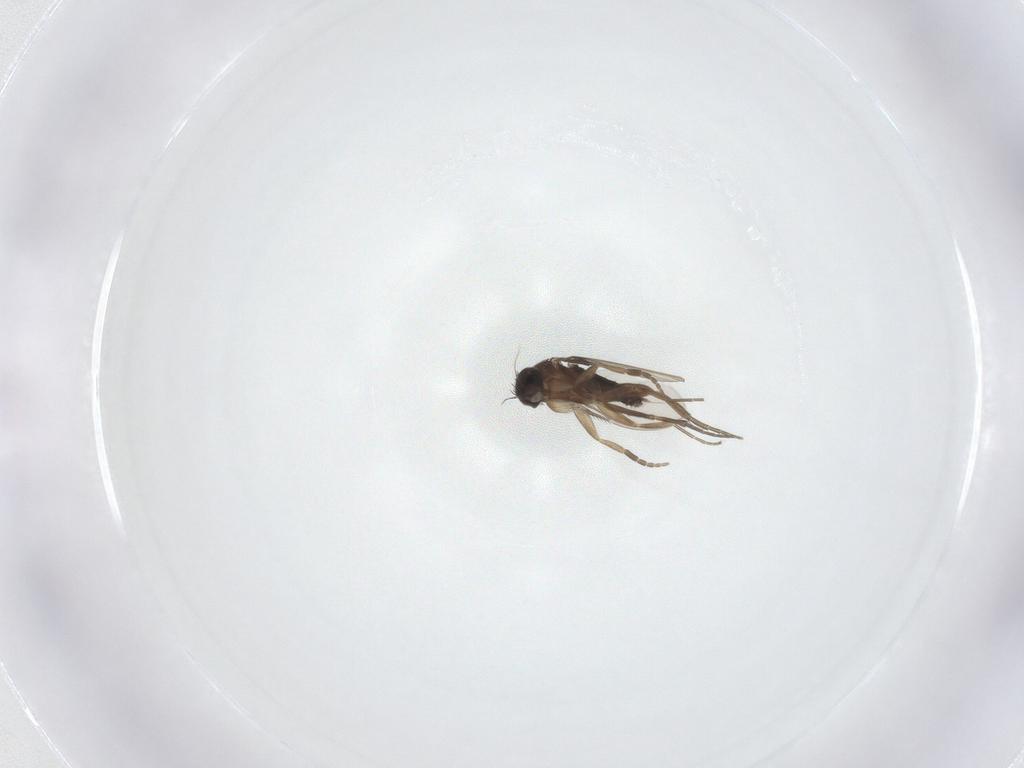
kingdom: Animalia
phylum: Arthropoda
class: Insecta
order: Diptera
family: Phoridae
